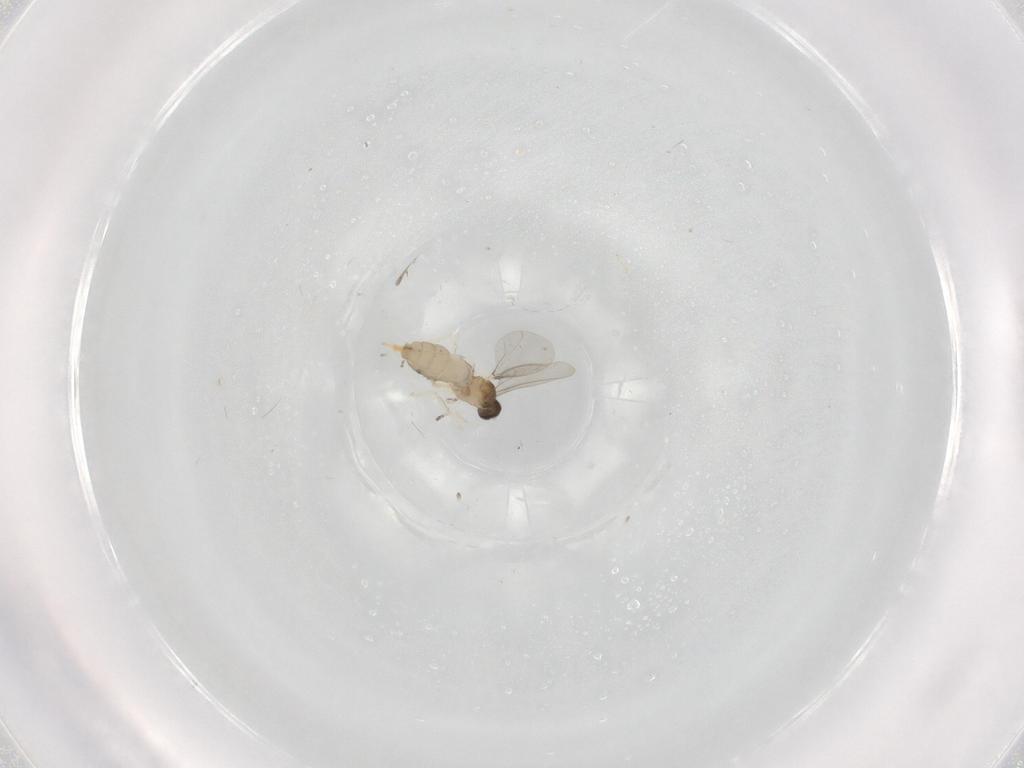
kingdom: Animalia
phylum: Arthropoda
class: Insecta
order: Diptera
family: Cecidomyiidae
